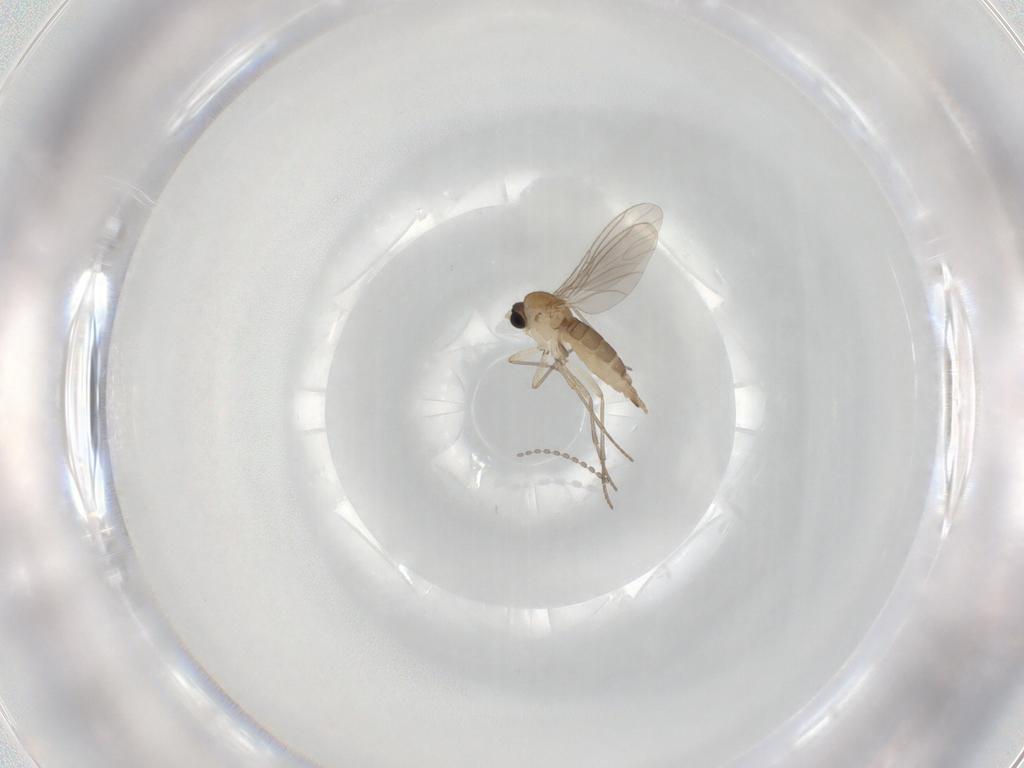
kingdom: Animalia
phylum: Arthropoda
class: Insecta
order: Diptera
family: Sciaridae
